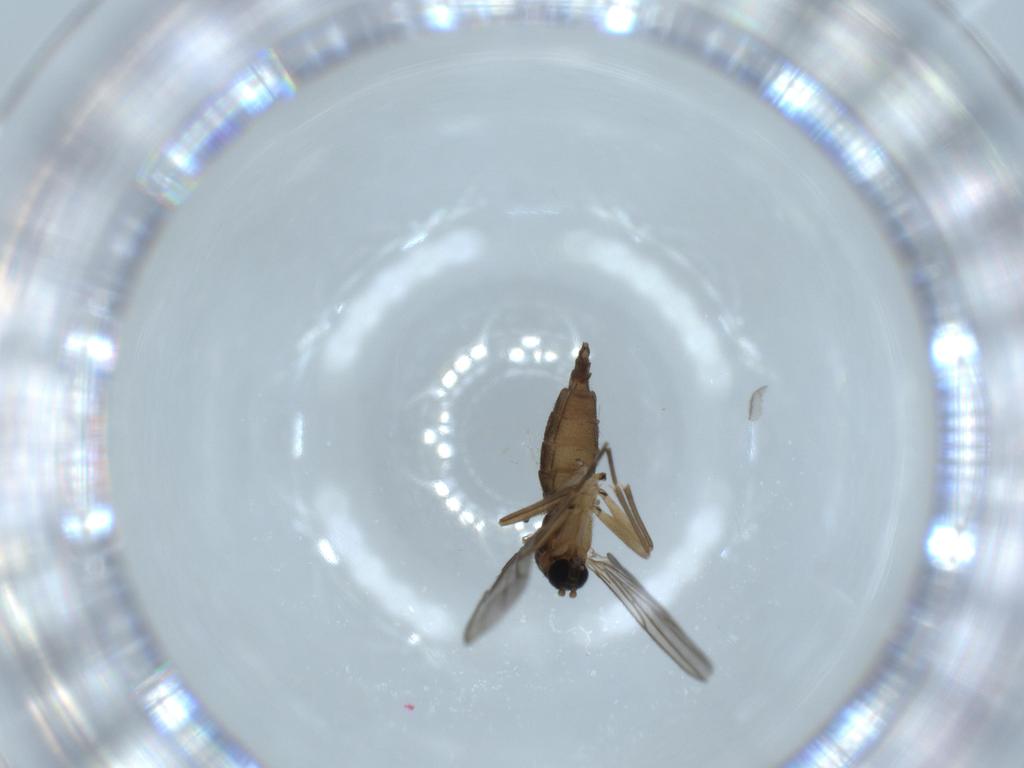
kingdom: Animalia
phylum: Arthropoda
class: Insecta
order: Diptera
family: Sciaridae
